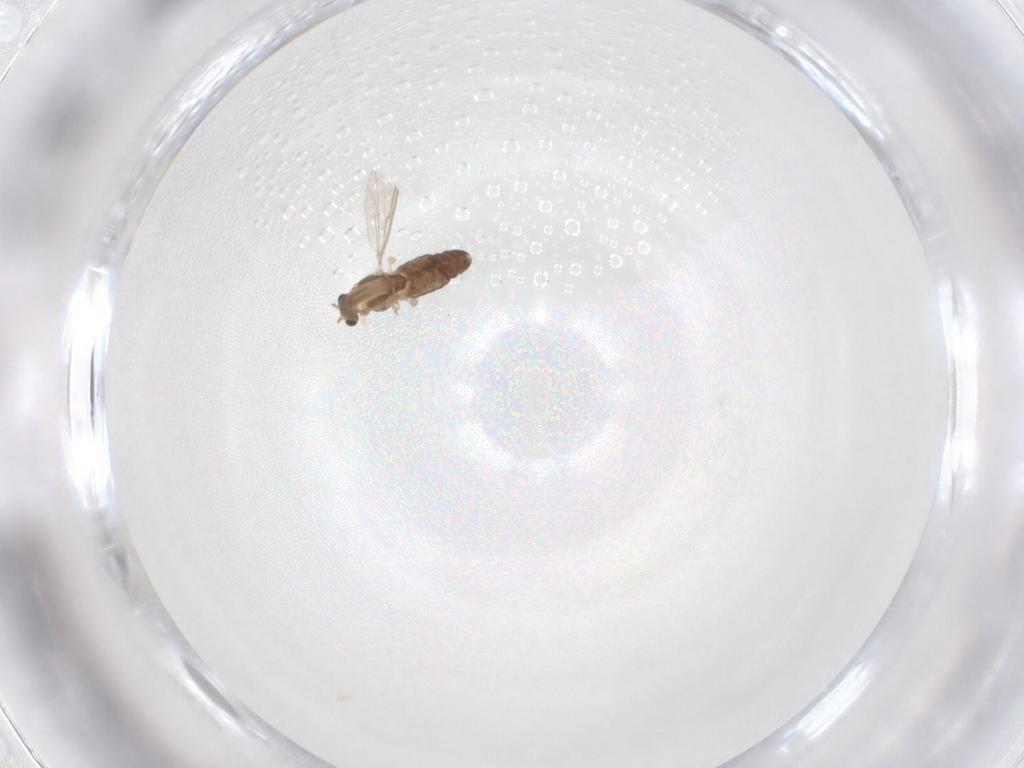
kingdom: Animalia
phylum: Arthropoda
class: Insecta
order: Diptera
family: Chironomidae
